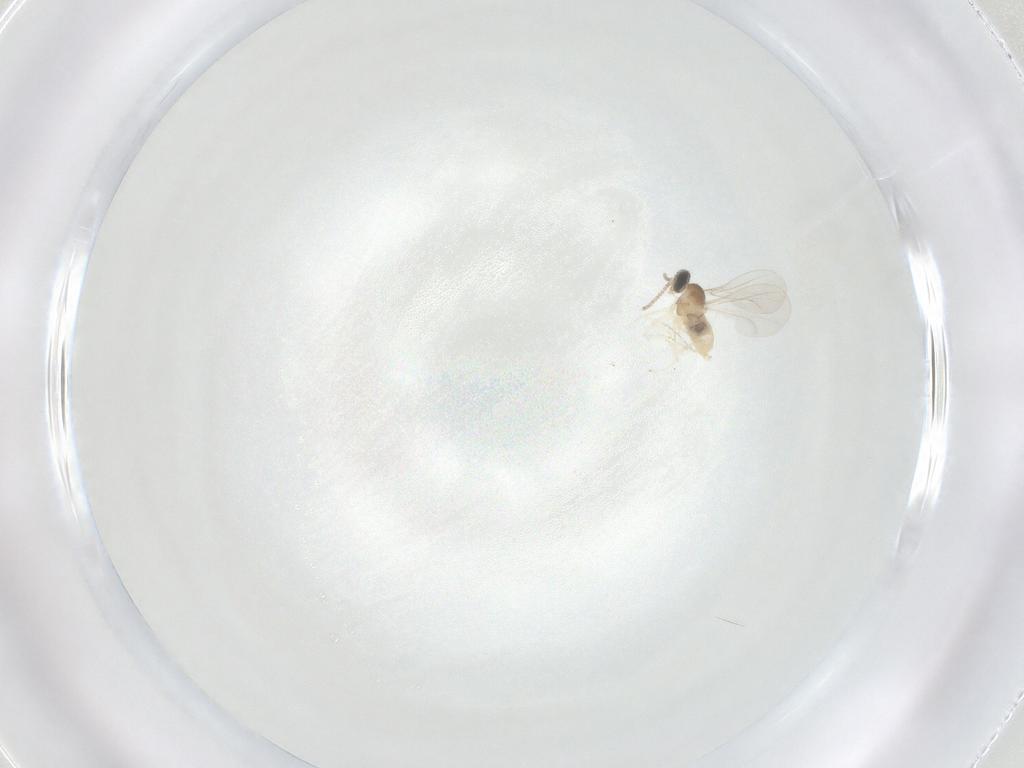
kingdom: Animalia
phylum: Arthropoda
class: Insecta
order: Diptera
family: Cecidomyiidae
